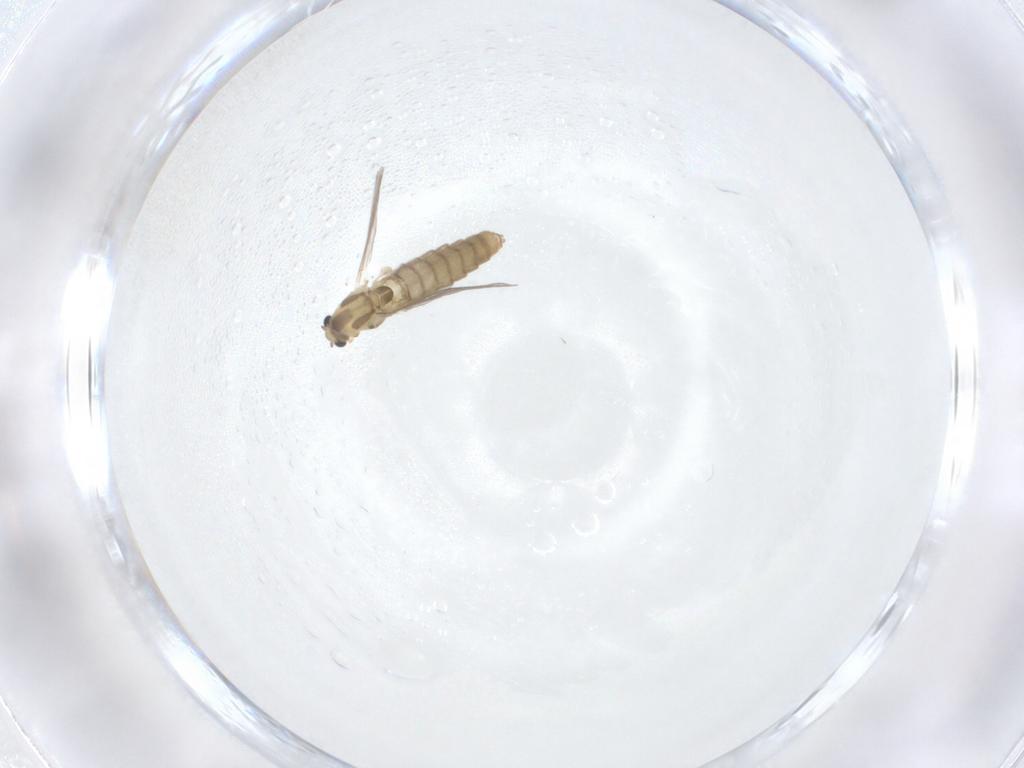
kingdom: Animalia
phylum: Arthropoda
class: Insecta
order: Diptera
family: Chironomidae
